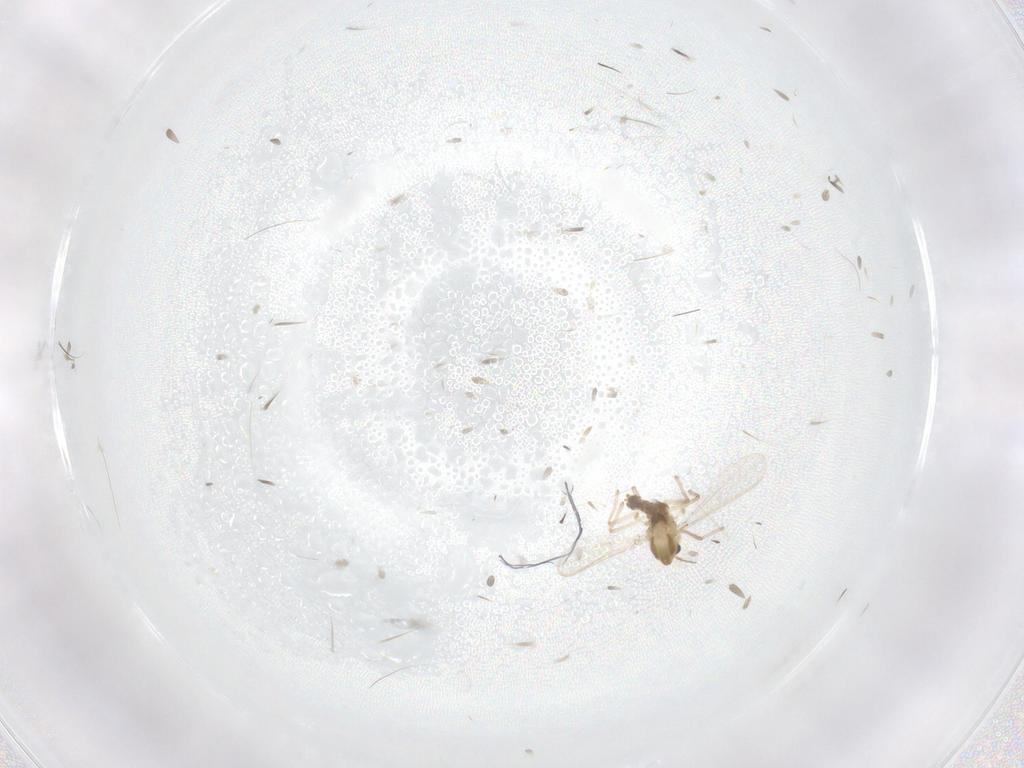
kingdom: Animalia
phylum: Arthropoda
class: Insecta
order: Diptera
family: Chironomidae
